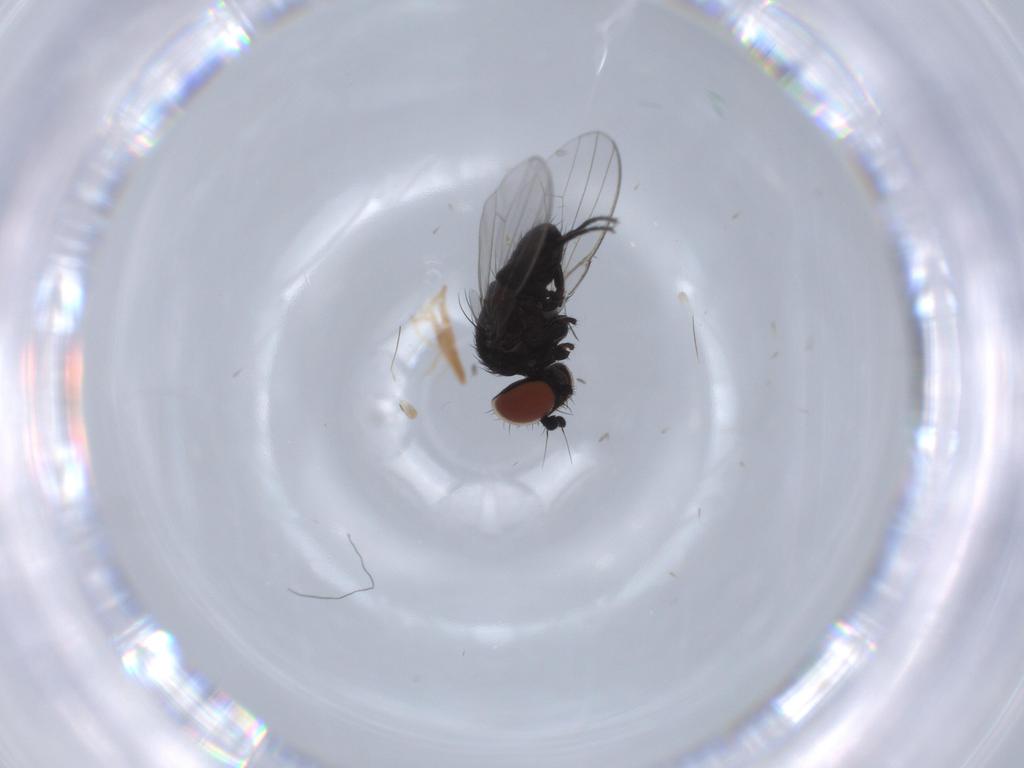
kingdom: Animalia
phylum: Arthropoda
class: Insecta
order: Diptera
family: Milichiidae
